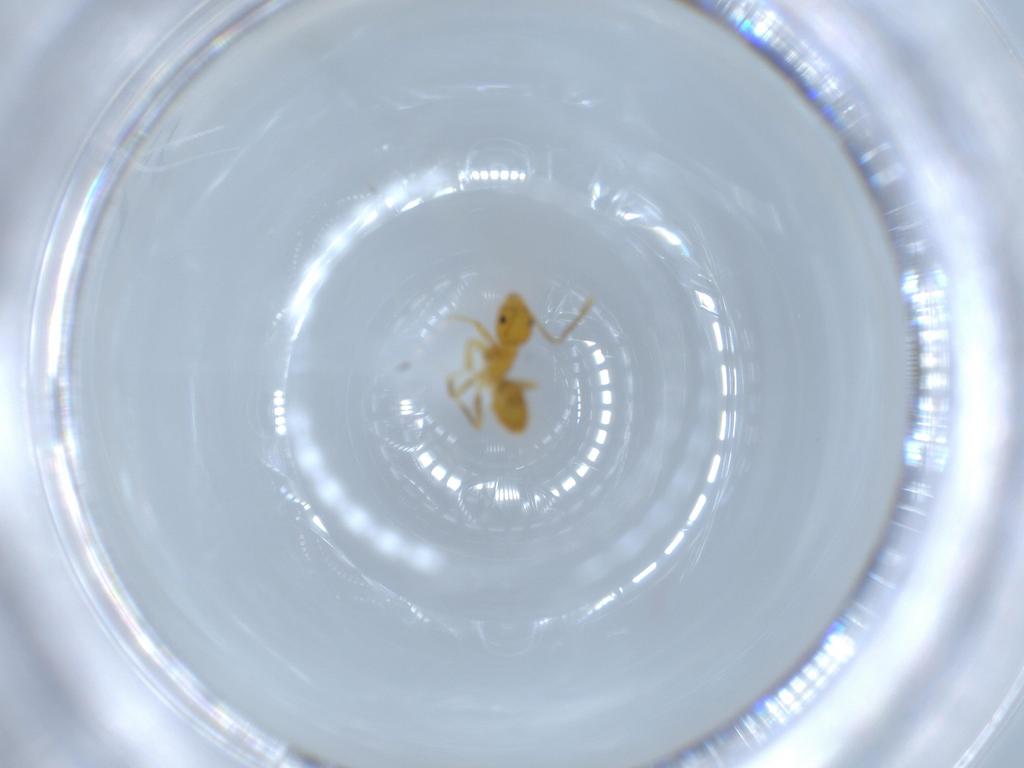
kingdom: Animalia
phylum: Arthropoda
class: Insecta
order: Hymenoptera
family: Formicidae
